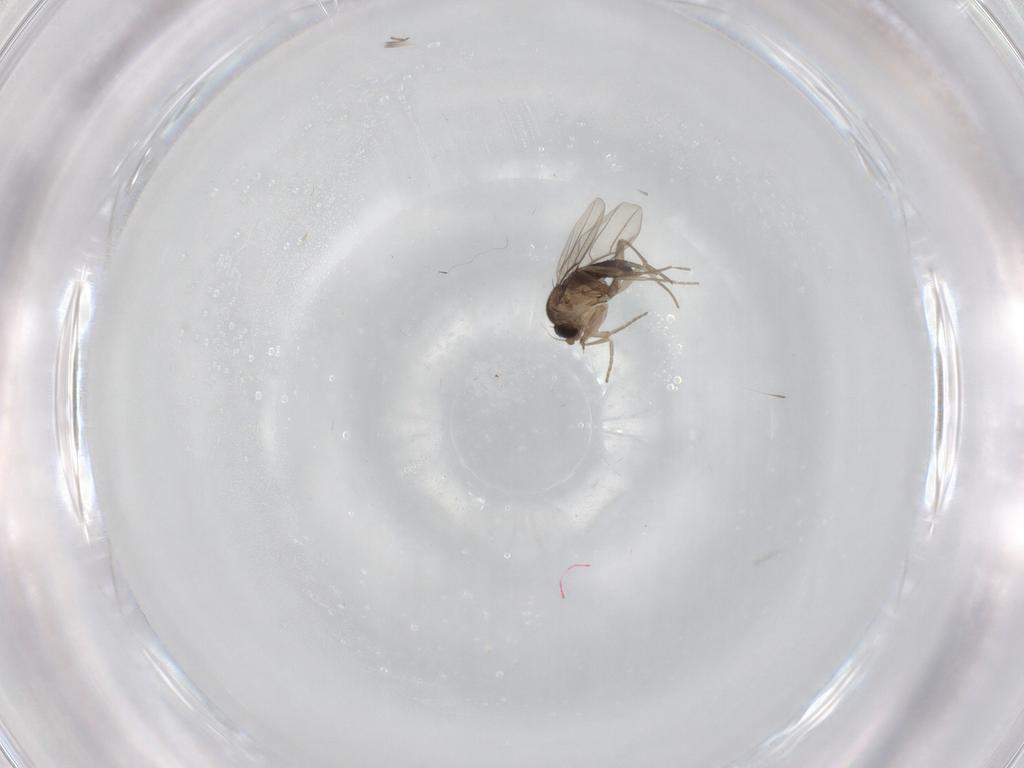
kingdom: Animalia
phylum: Arthropoda
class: Insecta
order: Diptera
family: Phoridae
